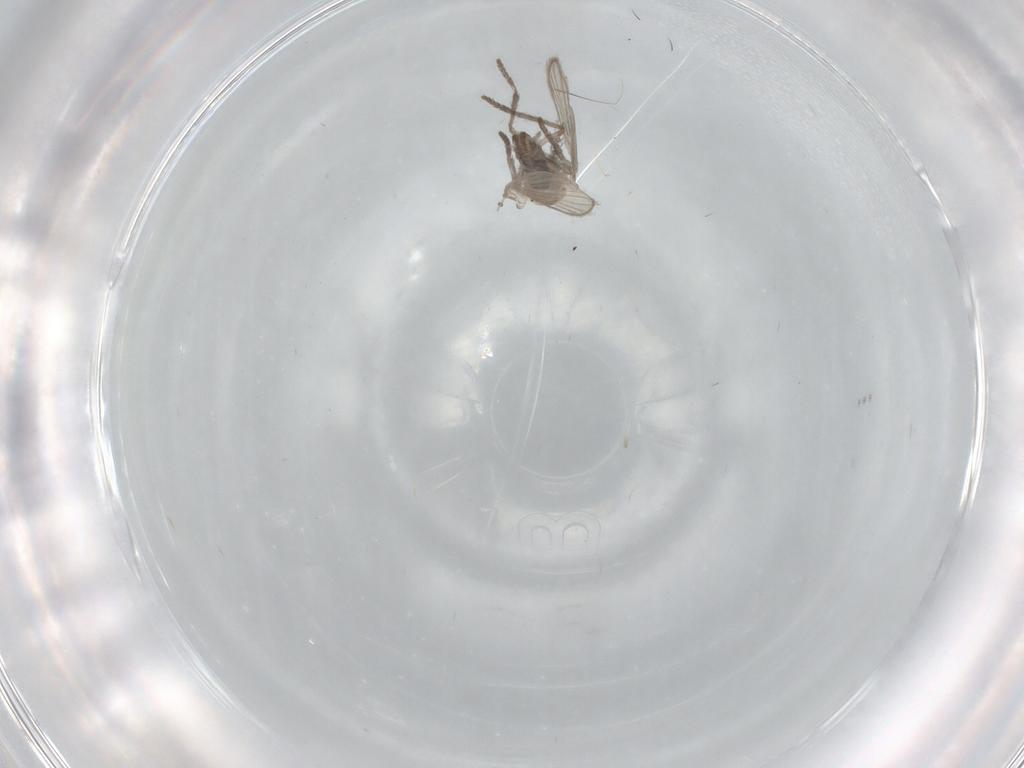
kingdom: Animalia
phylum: Arthropoda
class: Insecta
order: Diptera
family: Psychodidae
